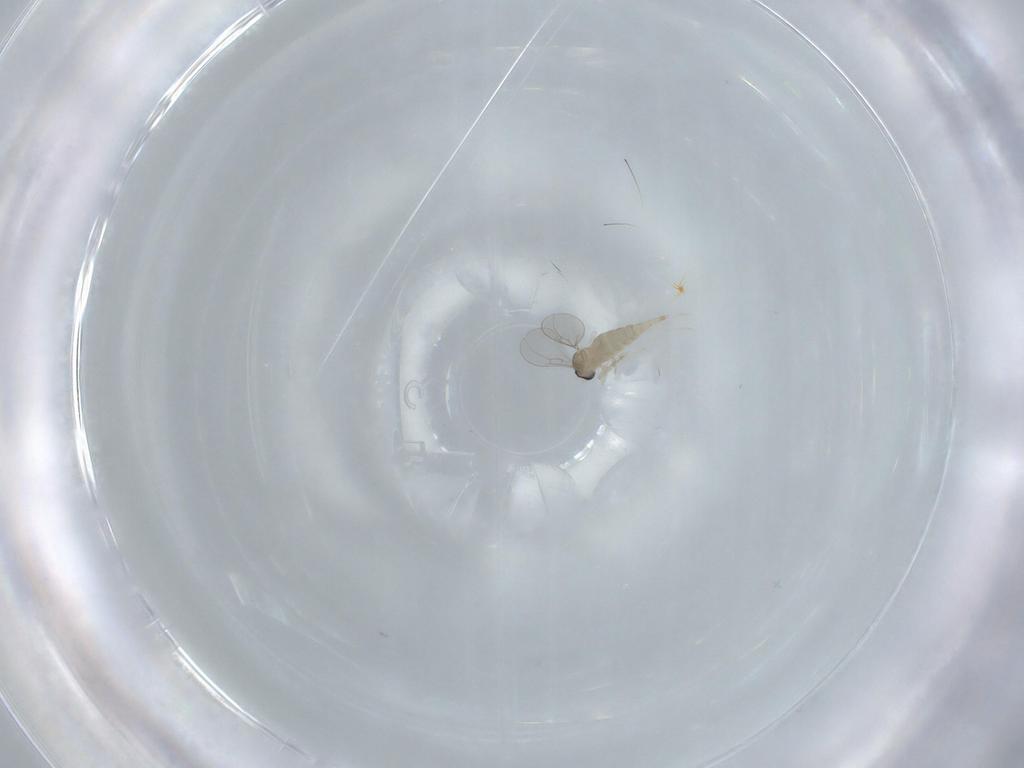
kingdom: Animalia
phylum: Arthropoda
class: Insecta
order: Diptera
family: Cecidomyiidae
